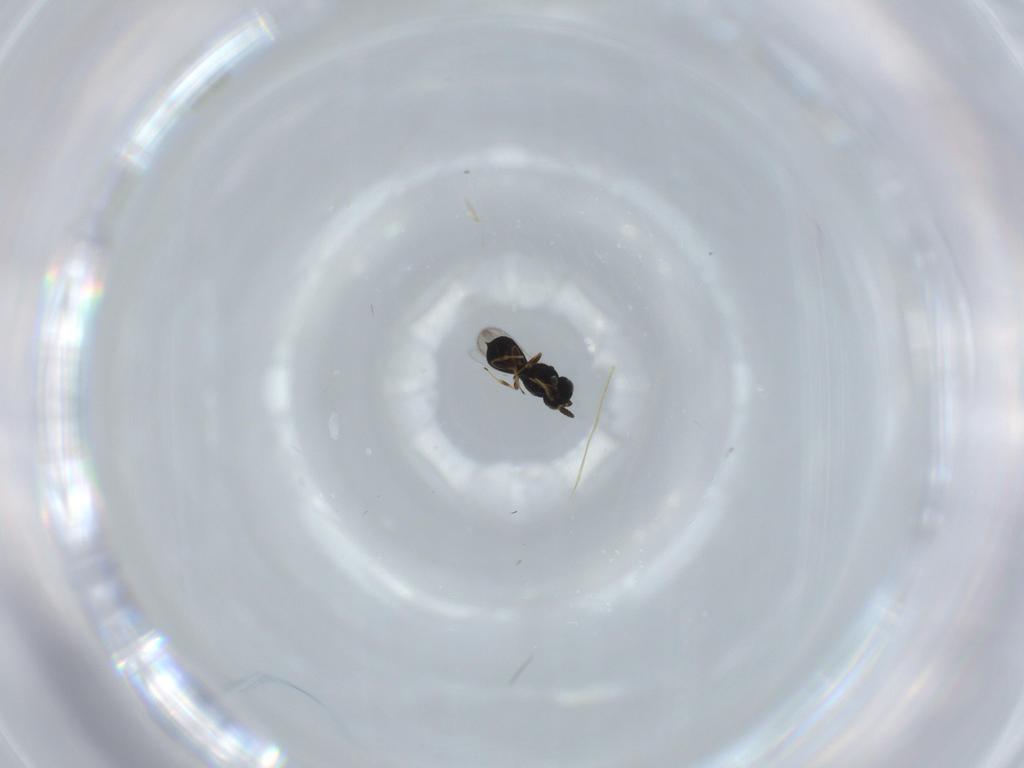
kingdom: Animalia
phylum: Arthropoda
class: Insecta
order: Hymenoptera
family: Scelionidae
